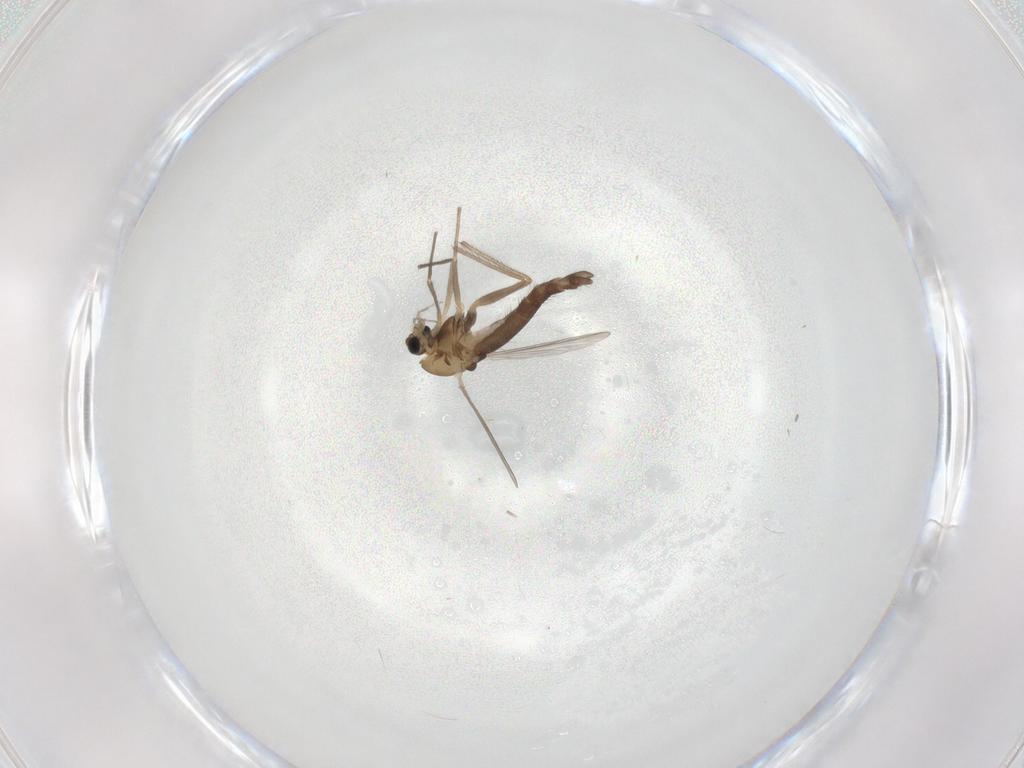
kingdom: Animalia
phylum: Arthropoda
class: Insecta
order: Diptera
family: Chironomidae
